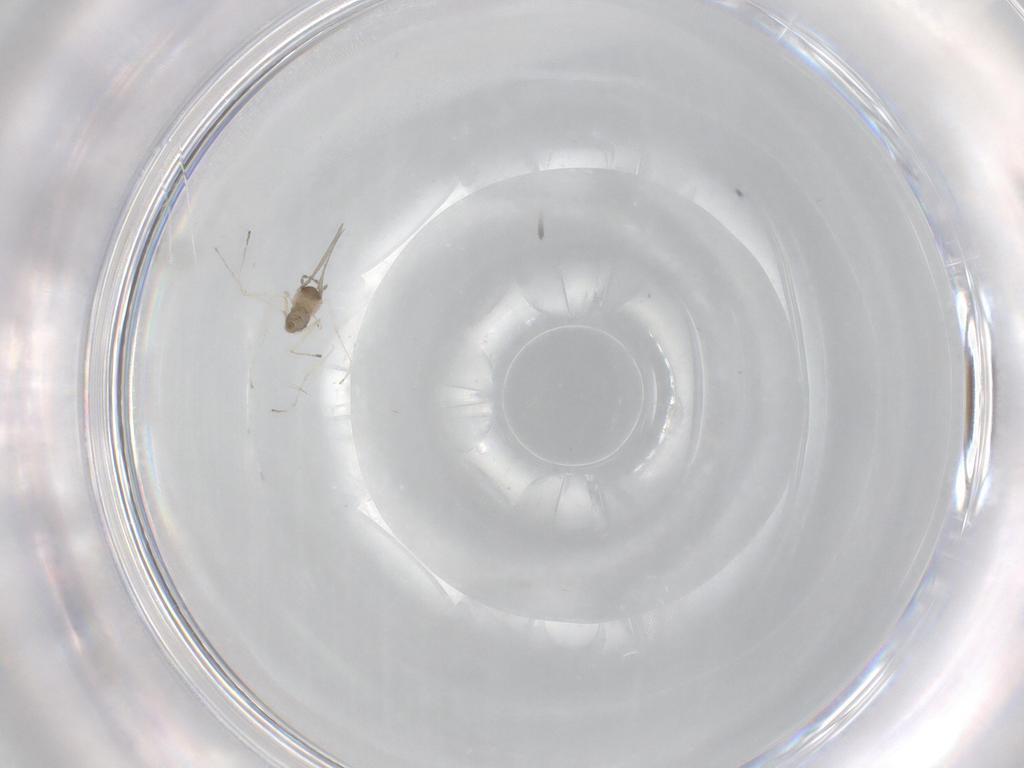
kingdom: Animalia
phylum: Arthropoda
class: Insecta
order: Diptera
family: Cecidomyiidae
